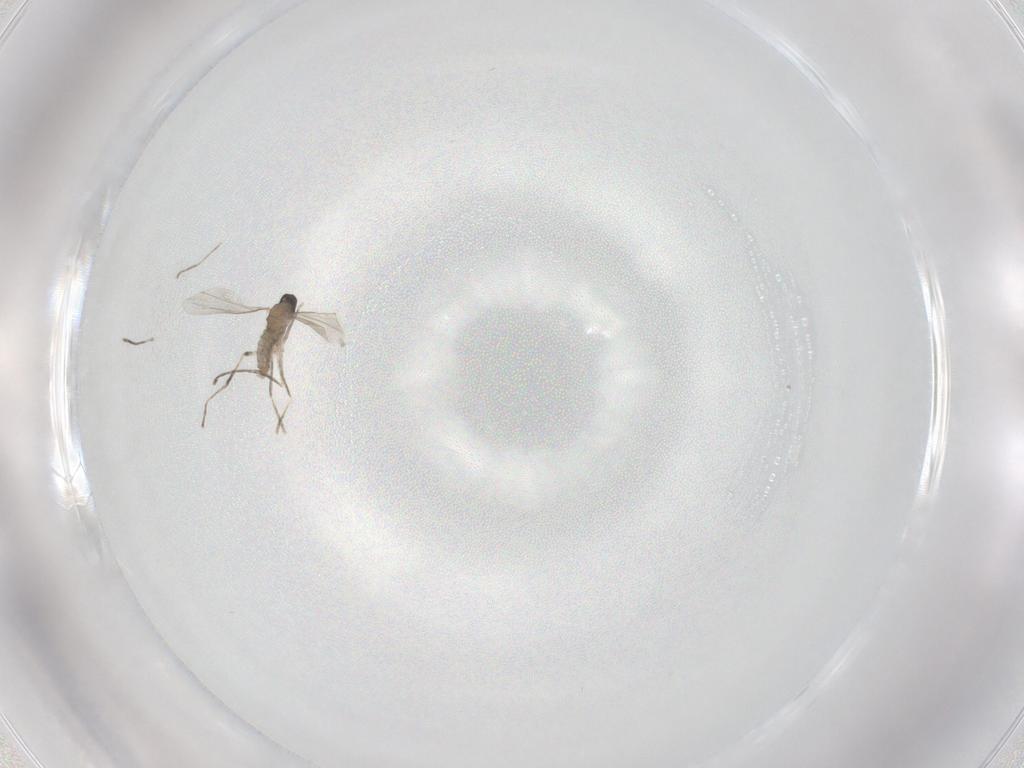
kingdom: Animalia
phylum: Arthropoda
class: Insecta
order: Diptera
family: Cecidomyiidae
